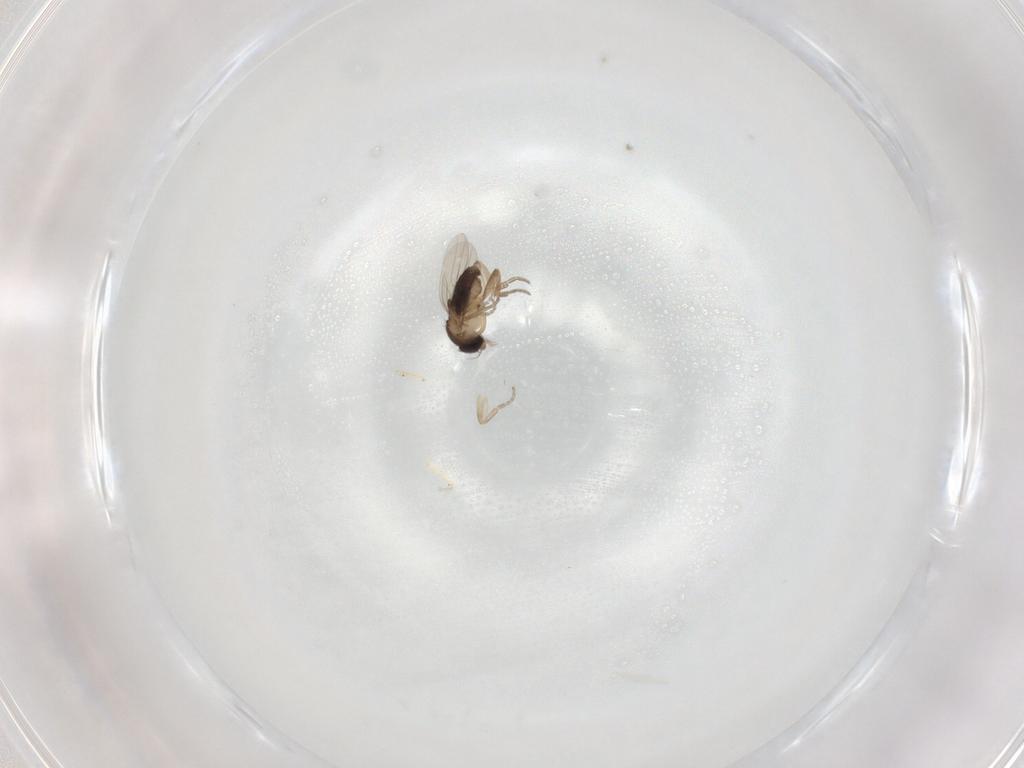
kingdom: Animalia
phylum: Arthropoda
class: Insecta
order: Diptera
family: Phoridae
